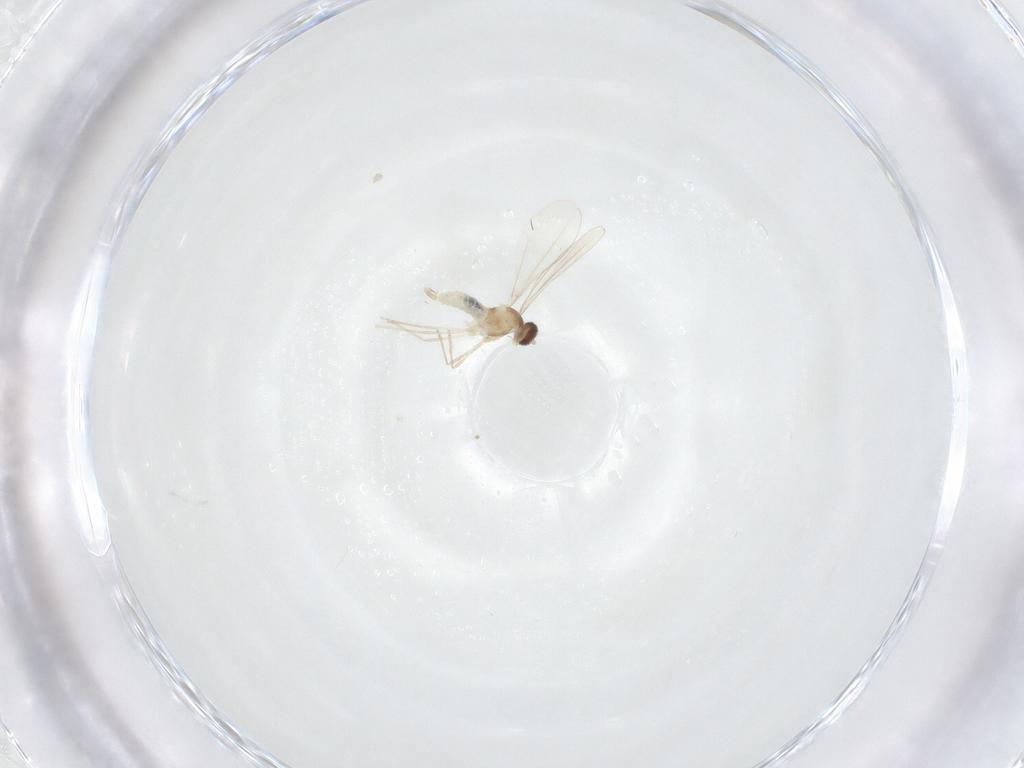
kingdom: Animalia
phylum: Arthropoda
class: Insecta
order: Diptera
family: Cecidomyiidae
